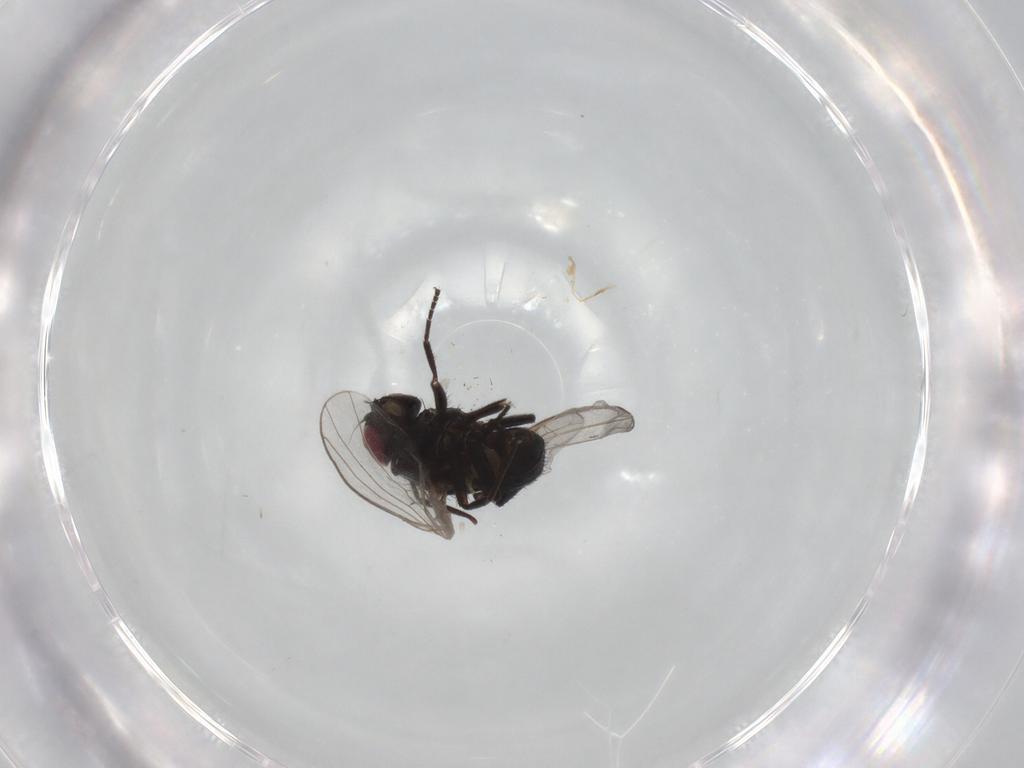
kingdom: Animalia
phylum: Arthropoda
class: Insecta
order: Diptera
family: Agromyzidae
